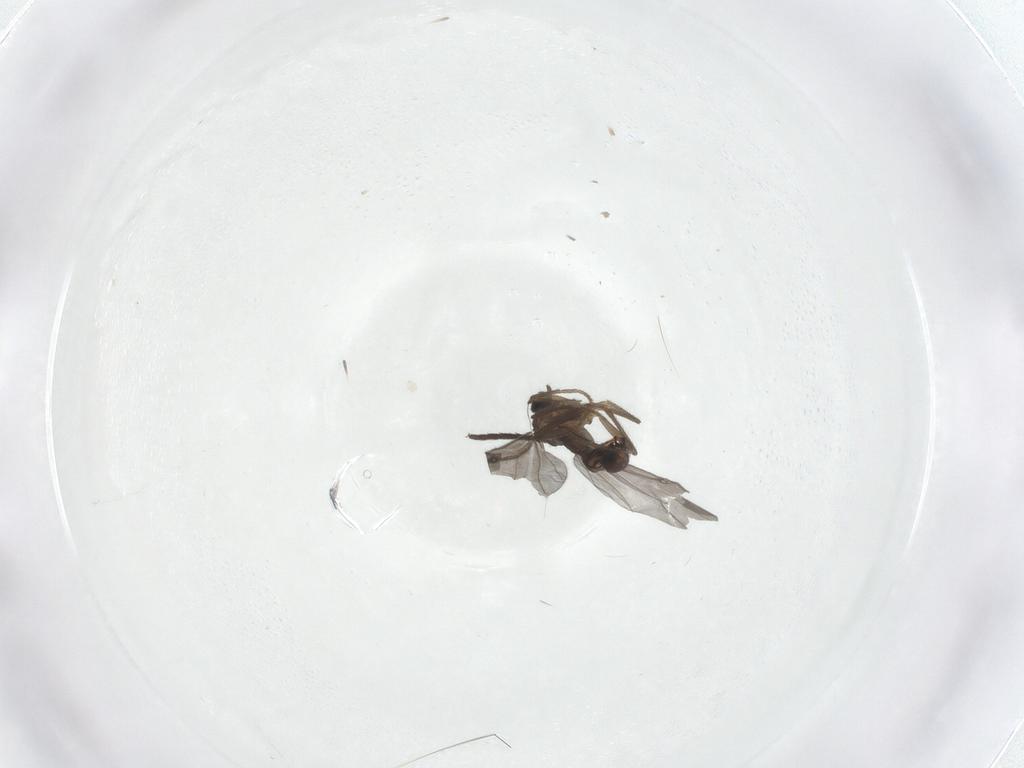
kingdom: Animalia
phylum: Arthropoda
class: Insecta
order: Diptera
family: Phoridae
